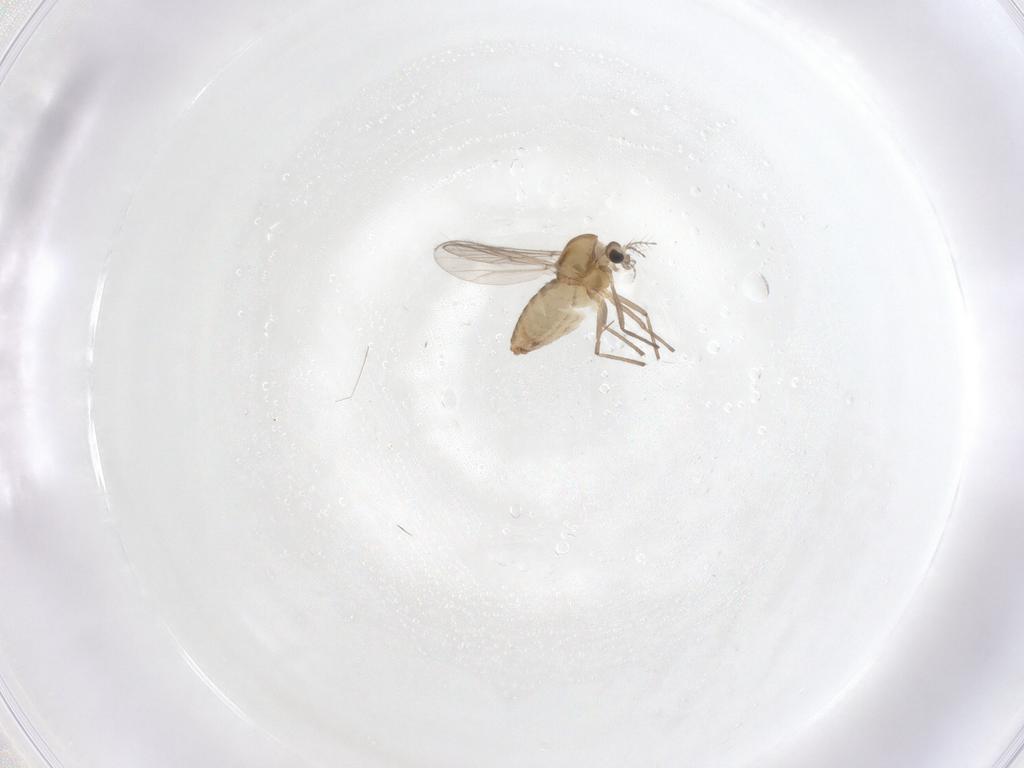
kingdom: Animalia
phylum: Arthropoda
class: Insecta
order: Diptera
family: Chironomidae
